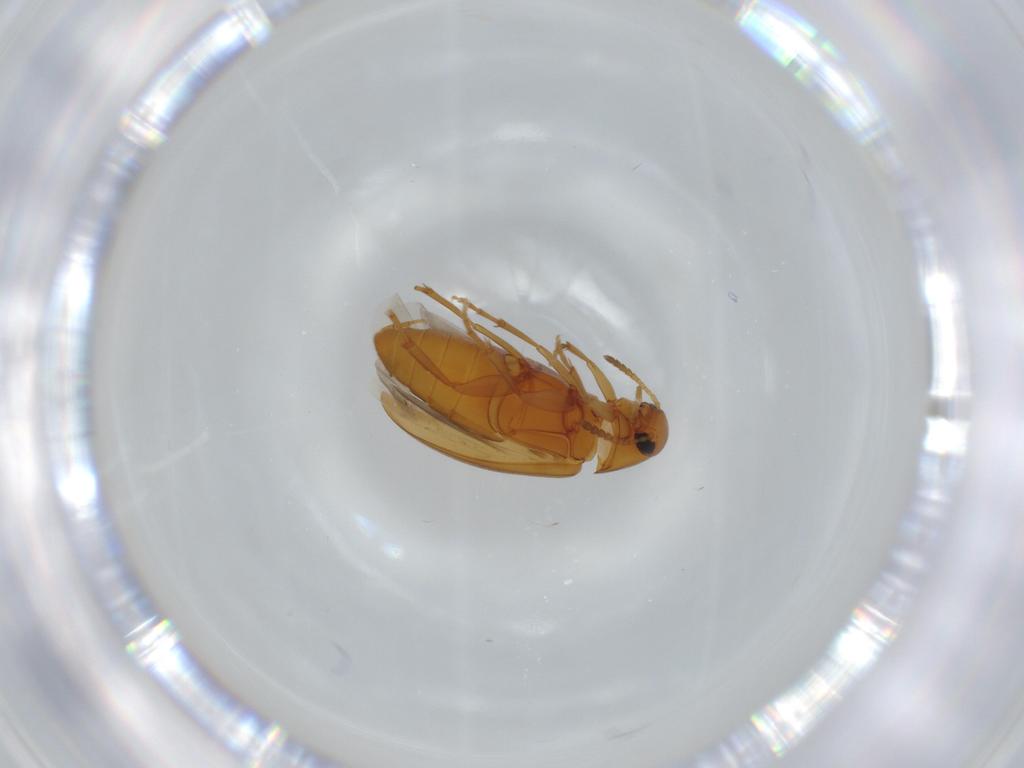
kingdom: Animalia
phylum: Arthropoda
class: Insecta
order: Coleoptera
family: Scraptiidae
